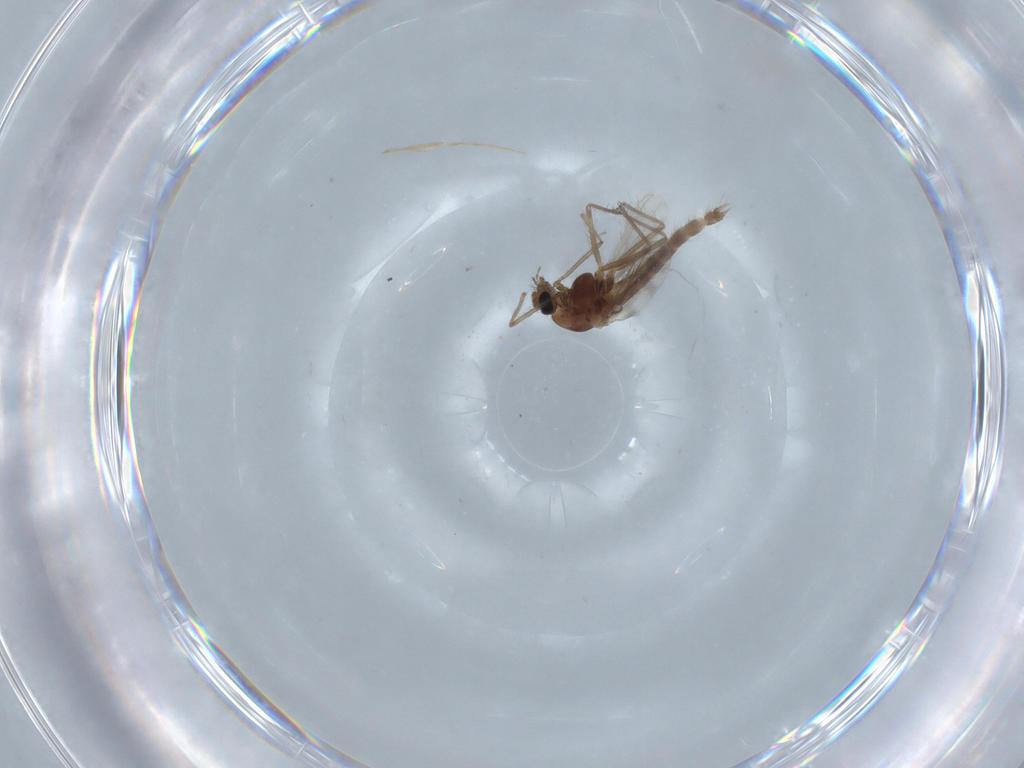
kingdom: Animalia
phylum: Arthropoda
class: Insecta
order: Diptera
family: Chironomidae
